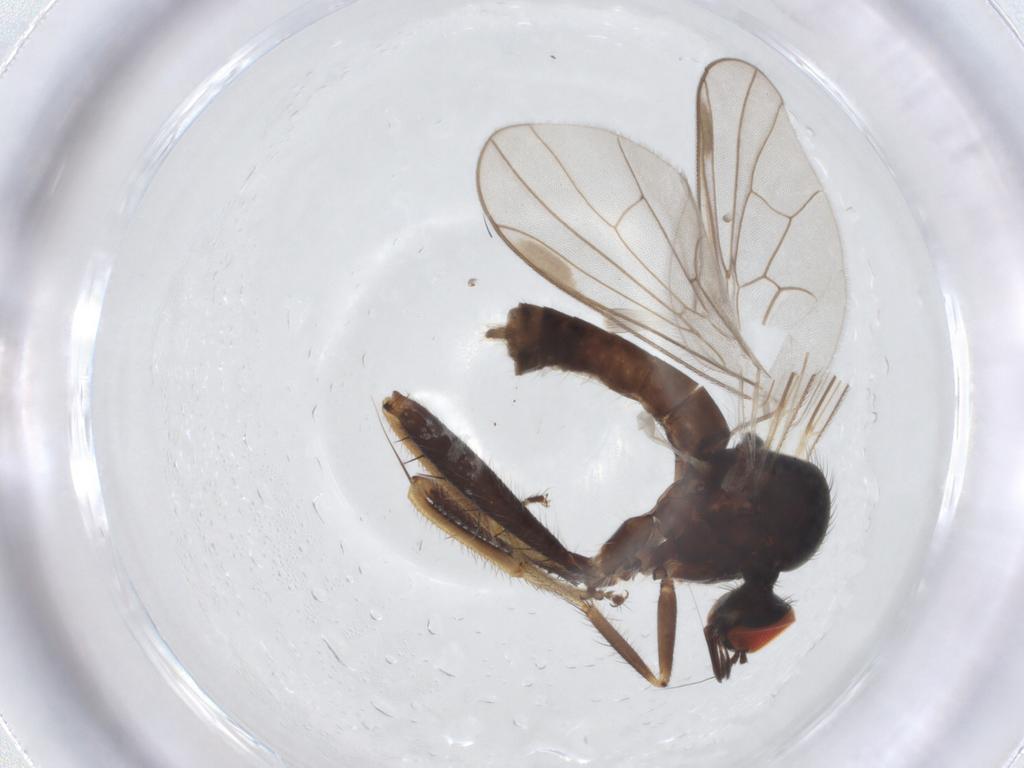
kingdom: Animalia
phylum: Arthropoda
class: Insecta
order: Diptera
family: Hybotidae
